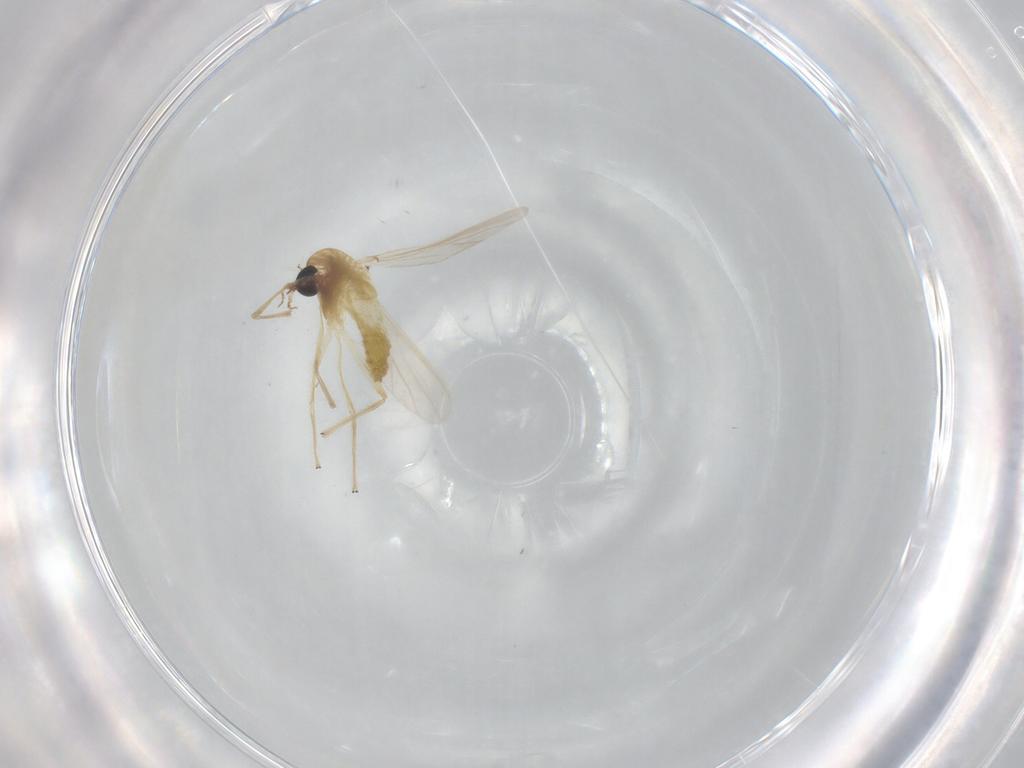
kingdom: Animalia
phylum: Arthropoda
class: Insecta
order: Diptera
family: Chironomidae
